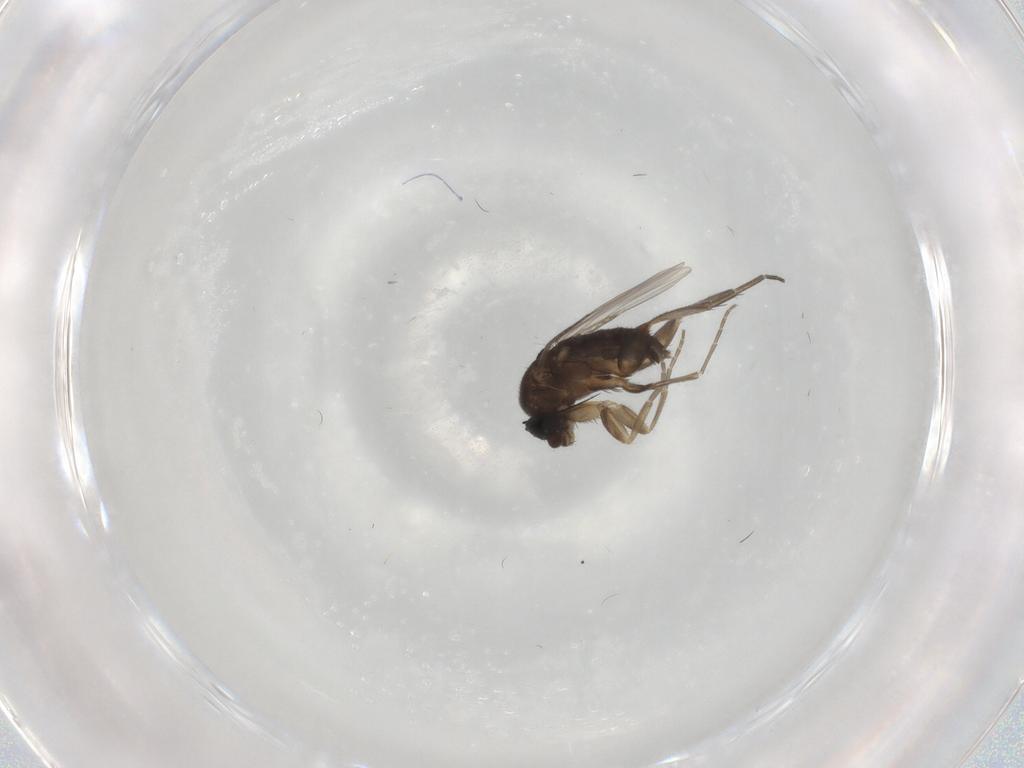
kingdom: Animalia
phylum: Arthropoda
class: Insecta
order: Diptera
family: Phoridae
